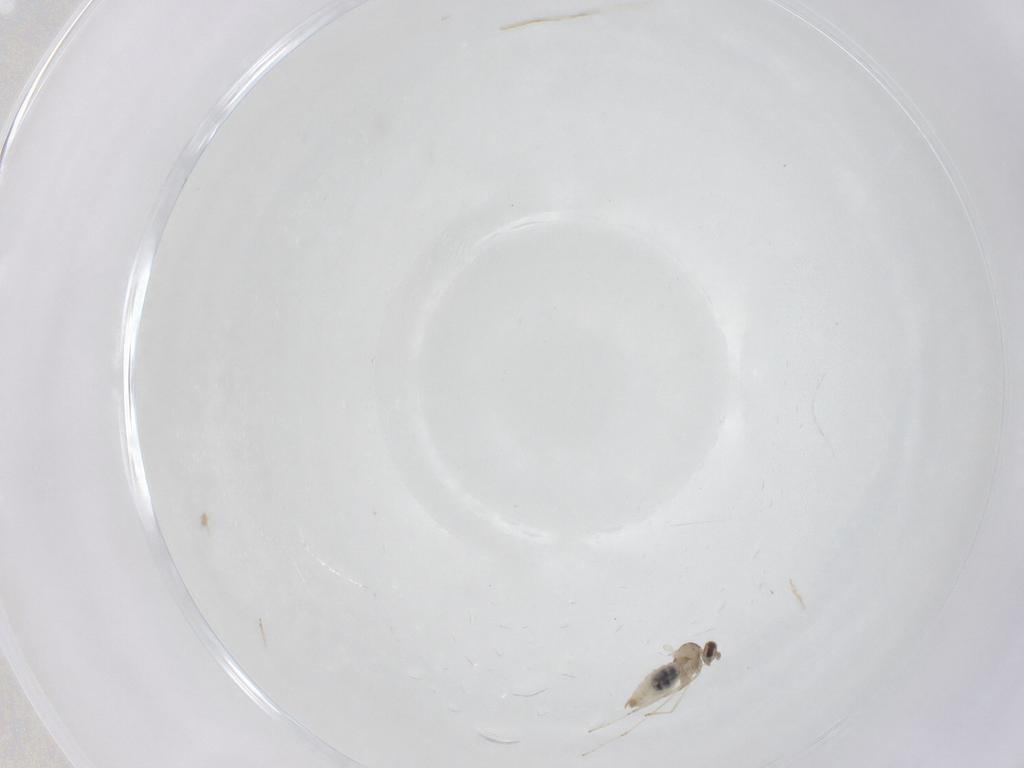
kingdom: Animalia
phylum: Arthropoda
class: Insecta
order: Diptera
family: Cecidomyiidae
